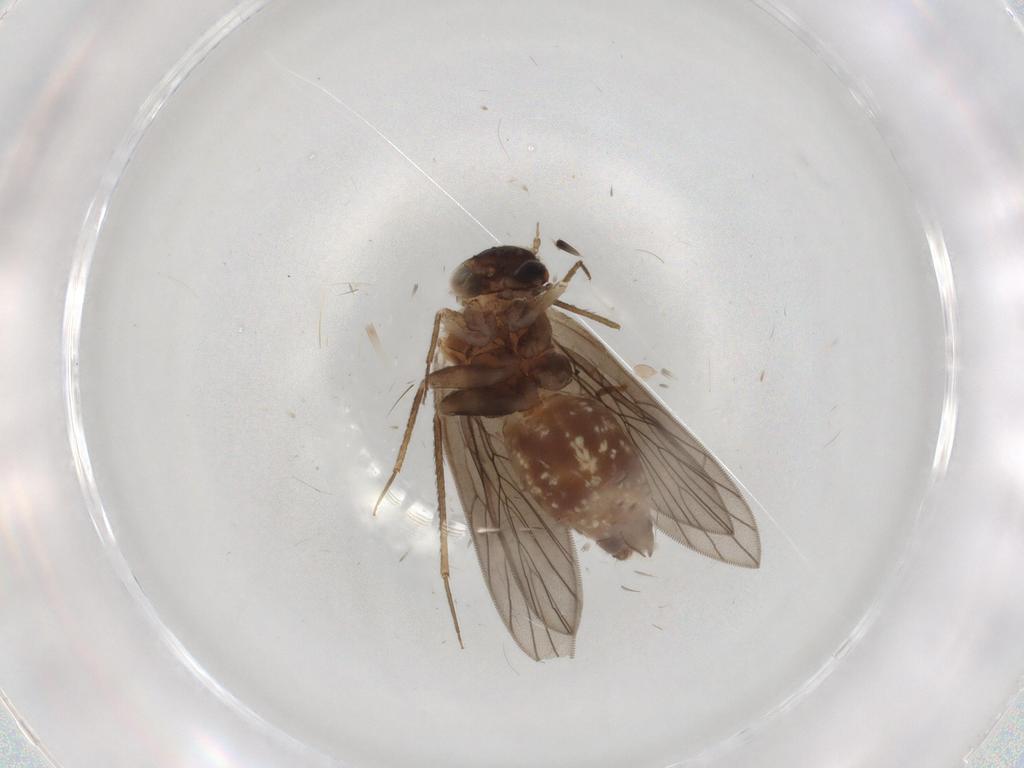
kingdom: Animalia
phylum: Arthropoda
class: Insecta
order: Psocodea
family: Lepidopsocidae
